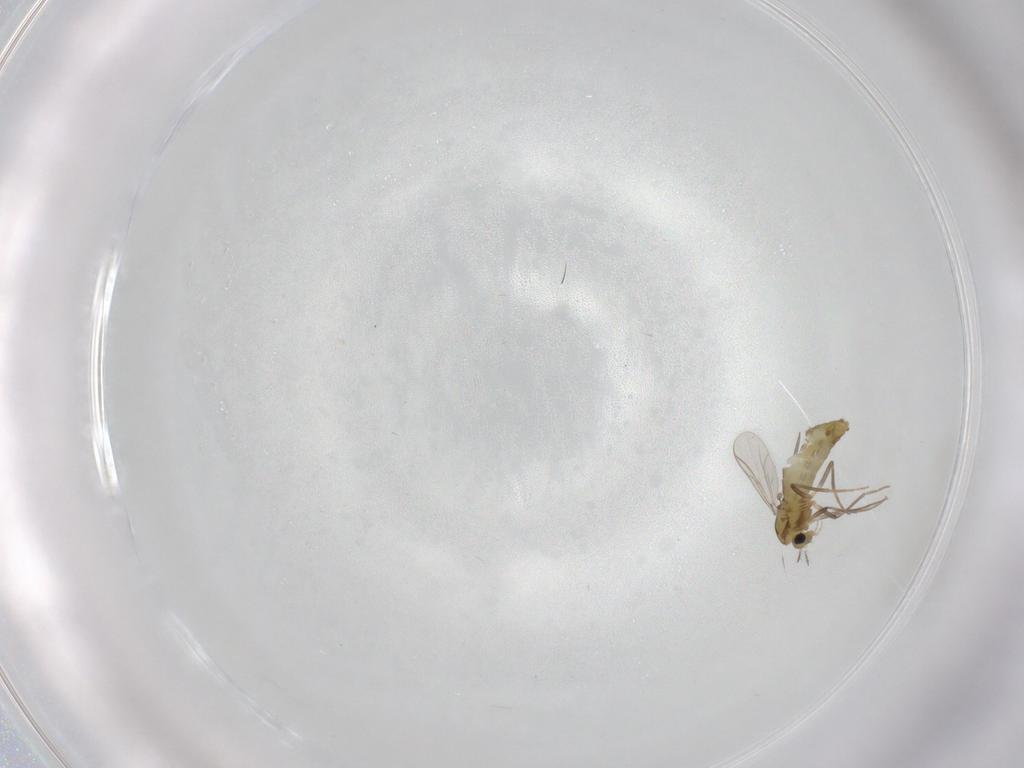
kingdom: Animalia
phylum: Arthropoda
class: Insecta
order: Diptera
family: Chironomidae
